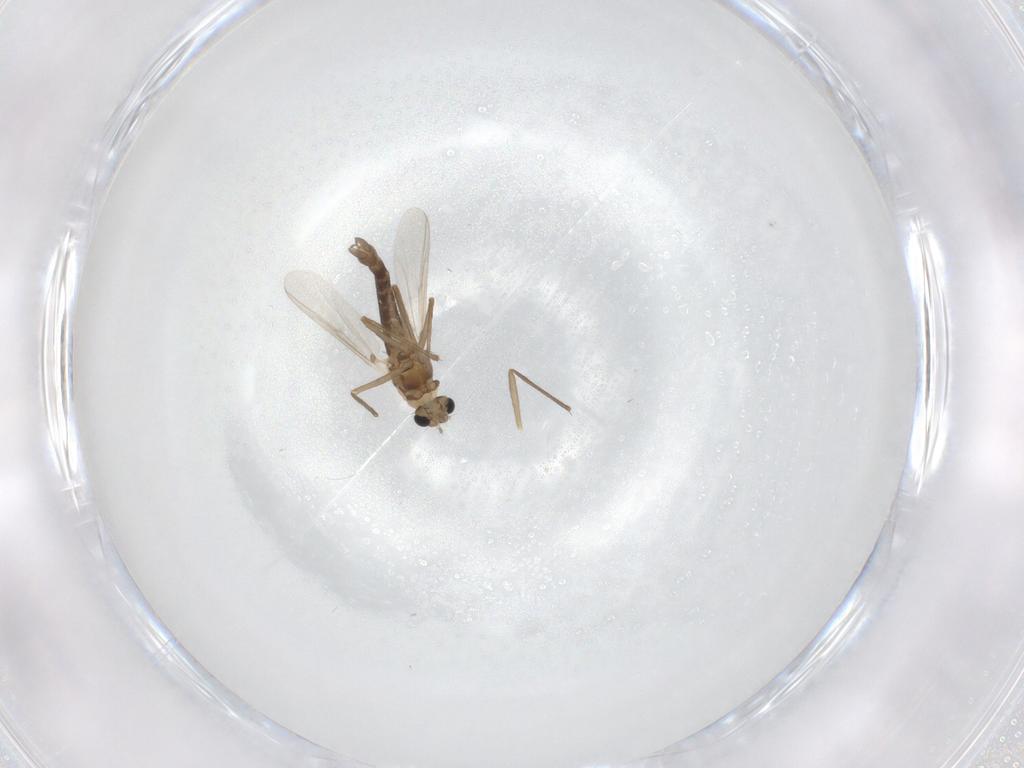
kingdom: Animalia
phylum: Arthropoda
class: Insecta
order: Diptera
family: Chironomidae
